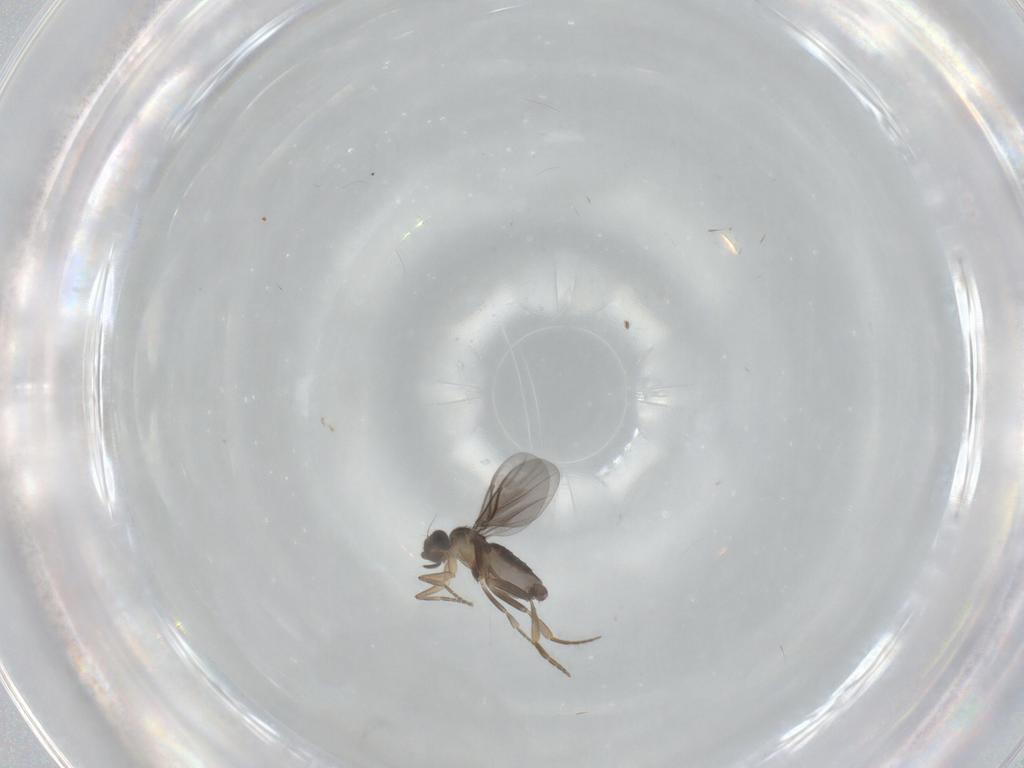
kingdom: Animalia
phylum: Arthropoda
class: Insecta
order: Diptera
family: Chloropidae
